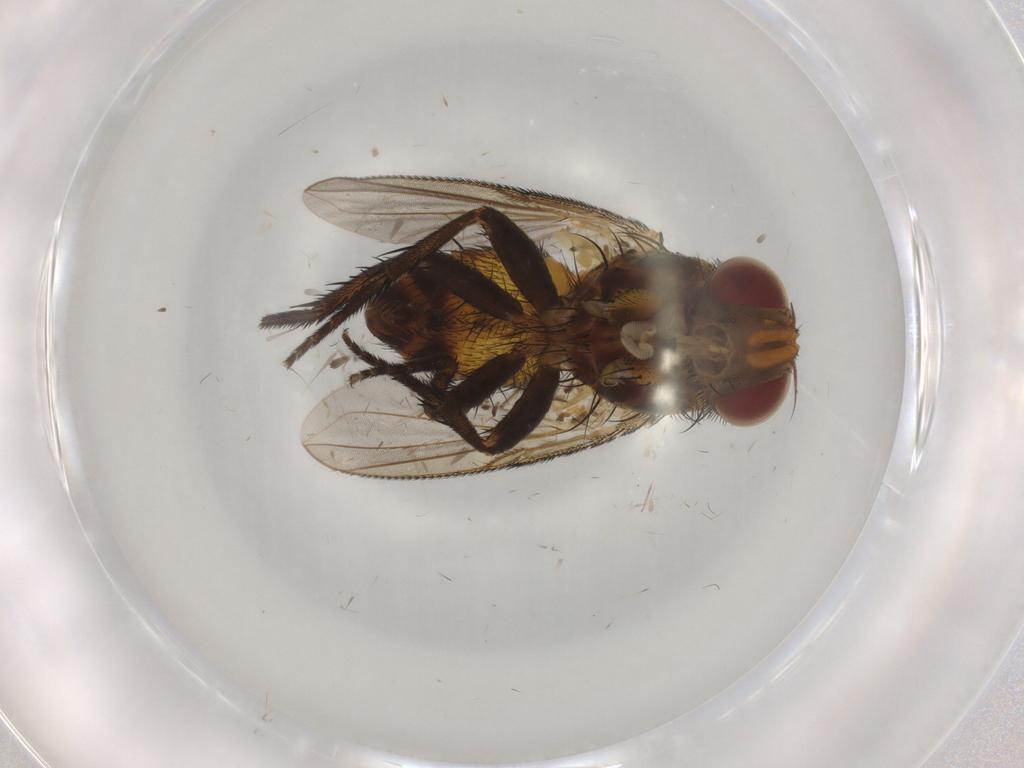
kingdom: Animalia
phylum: Arthropoda
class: Insecta
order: Diptera
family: Tachinidae
